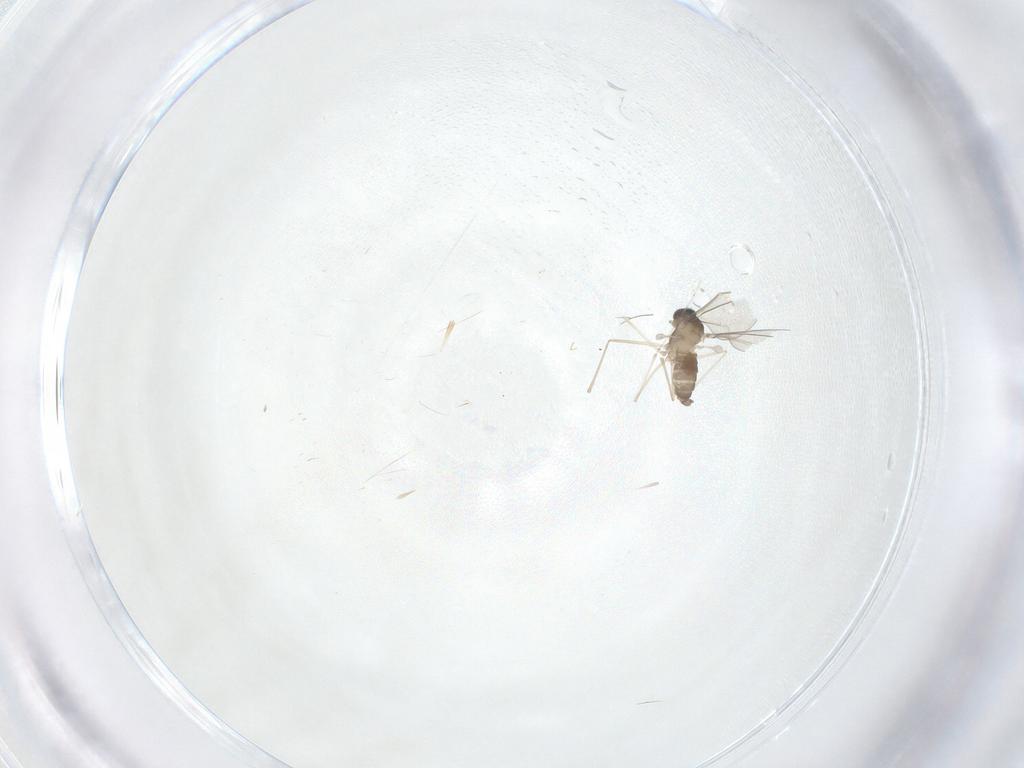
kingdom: Animalia
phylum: Arthropoda
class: Insecta
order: Diptera
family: Cecidomyiidae
